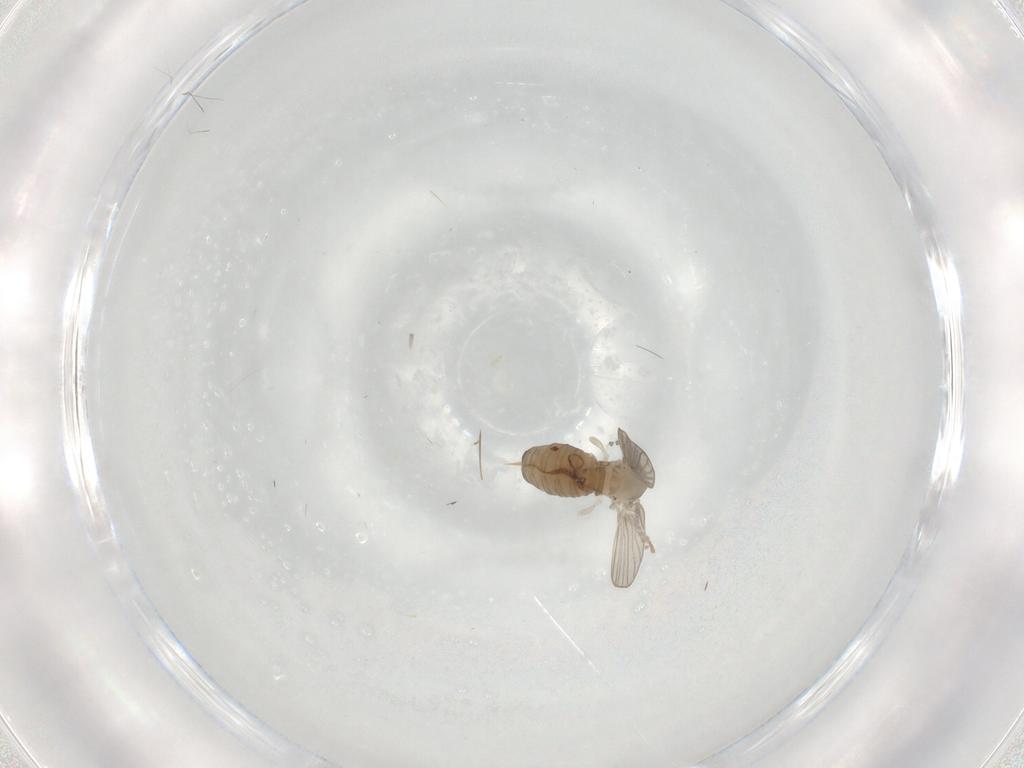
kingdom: Animalia
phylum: Arthropoda
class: Insecta
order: Diptera
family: Psychodidae
